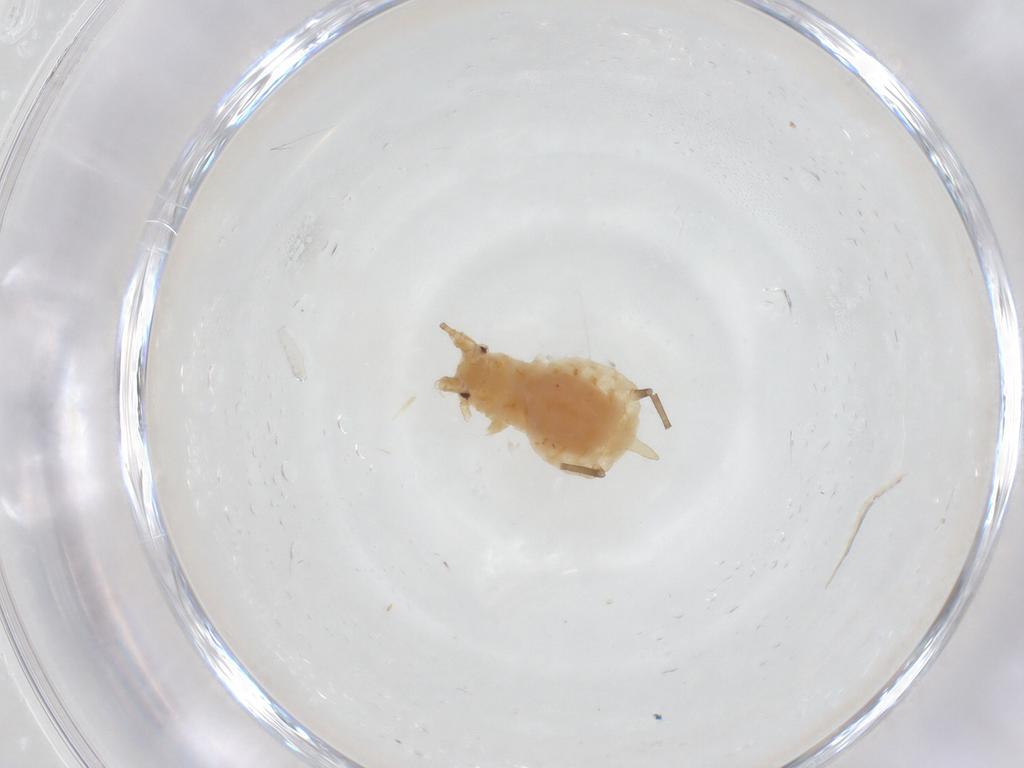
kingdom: Animalia
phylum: Arthropoda
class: Insecta
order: Hemiptera
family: Aphididae
